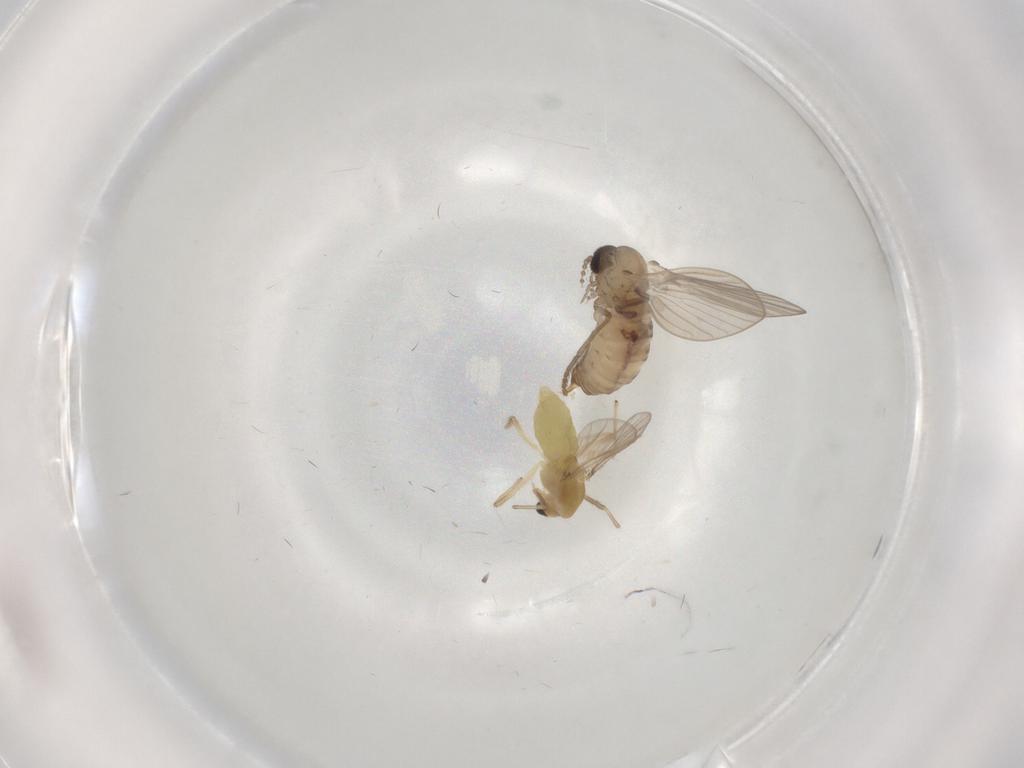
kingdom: Animalia
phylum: Arthropoda
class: Insecta
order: Diptera
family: Chironomidae
